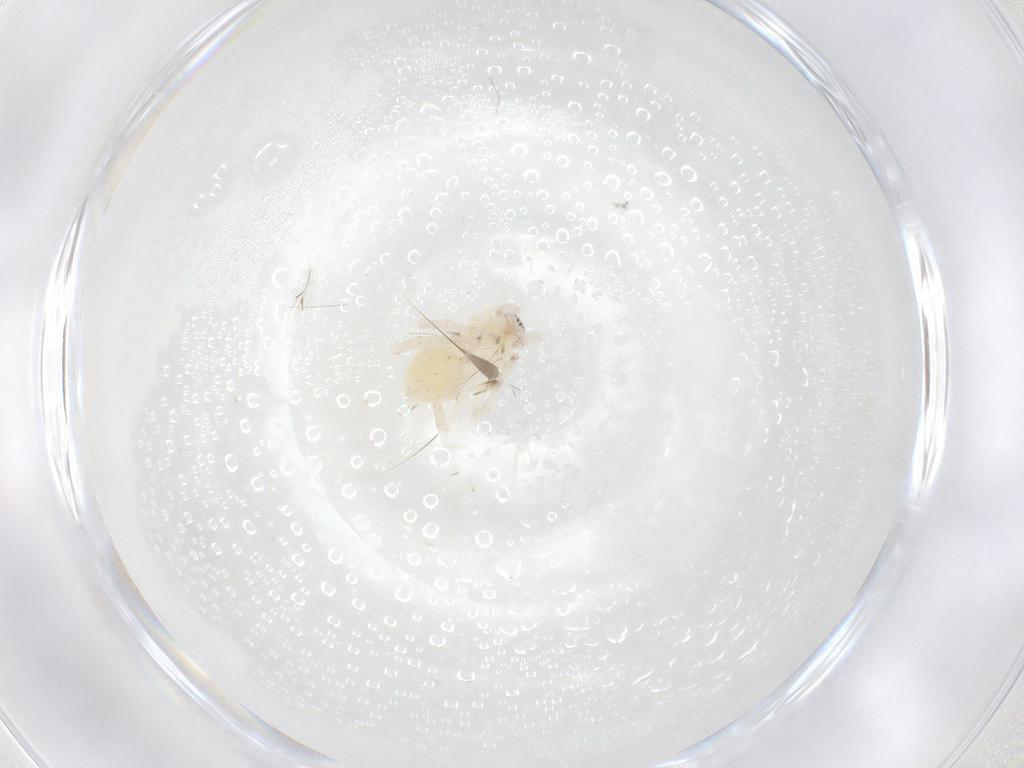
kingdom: Animalia
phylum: Arthropoda
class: Arachnida
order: Araneae
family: Anyphaenidae
